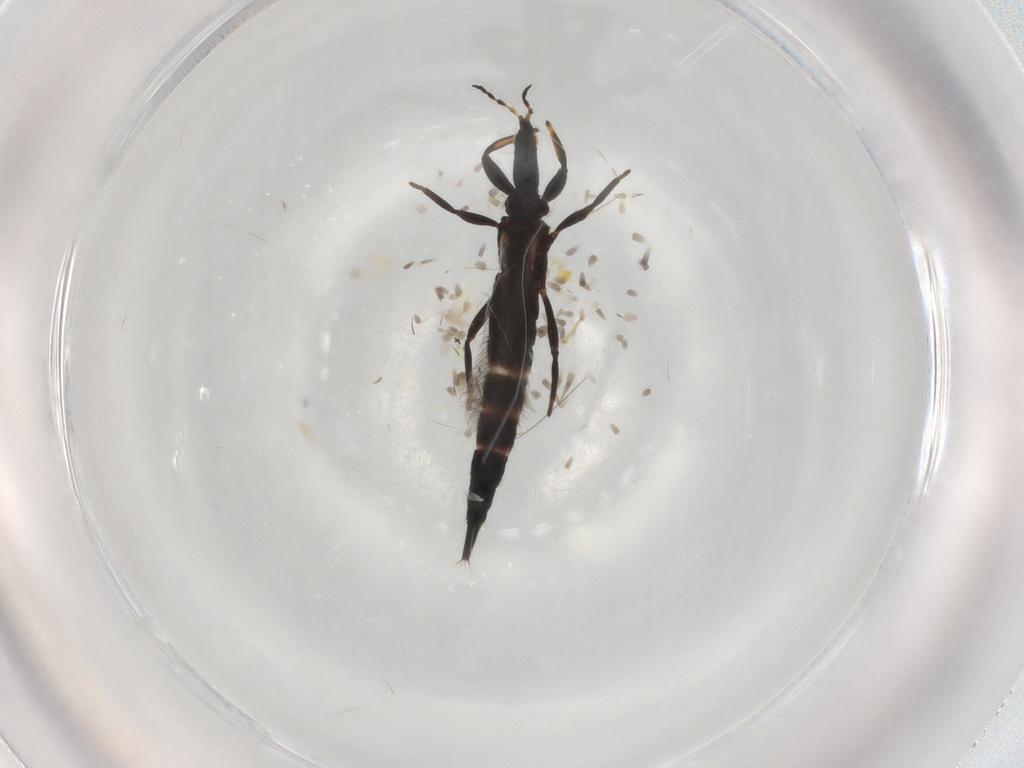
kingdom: Animalia
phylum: Arthropoda
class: Insecta
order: Thysanoptera
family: Phlaeothripidae
